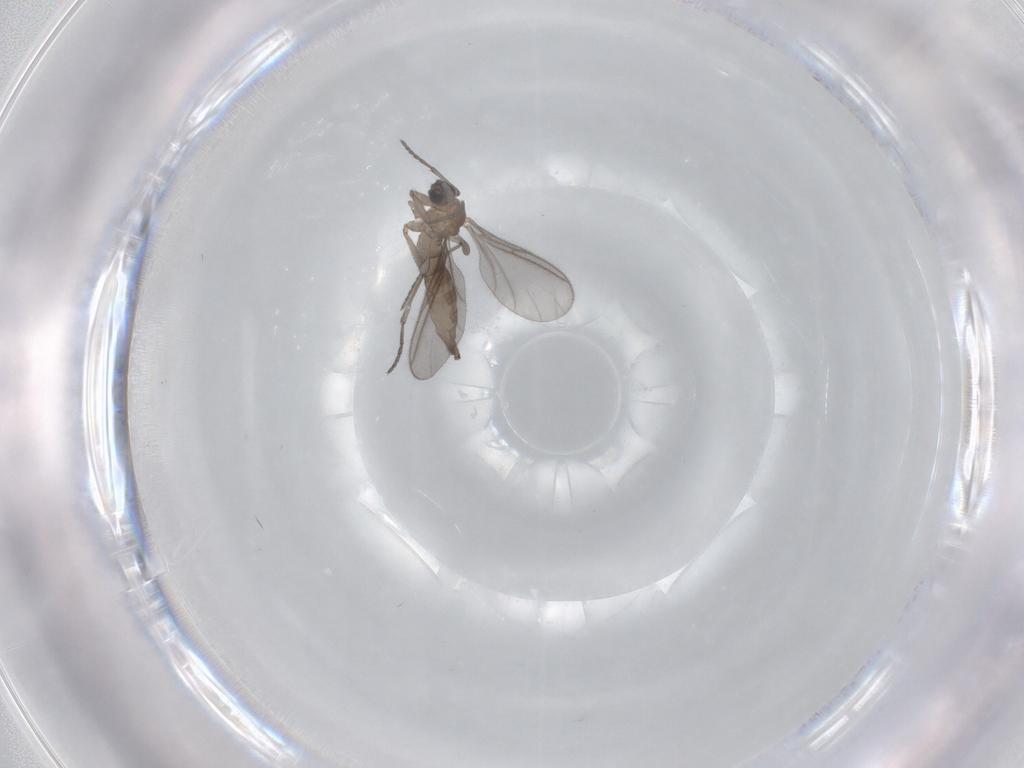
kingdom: Animalia
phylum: Arthropoda
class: Insecta
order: Diptera
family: Sciaridae
